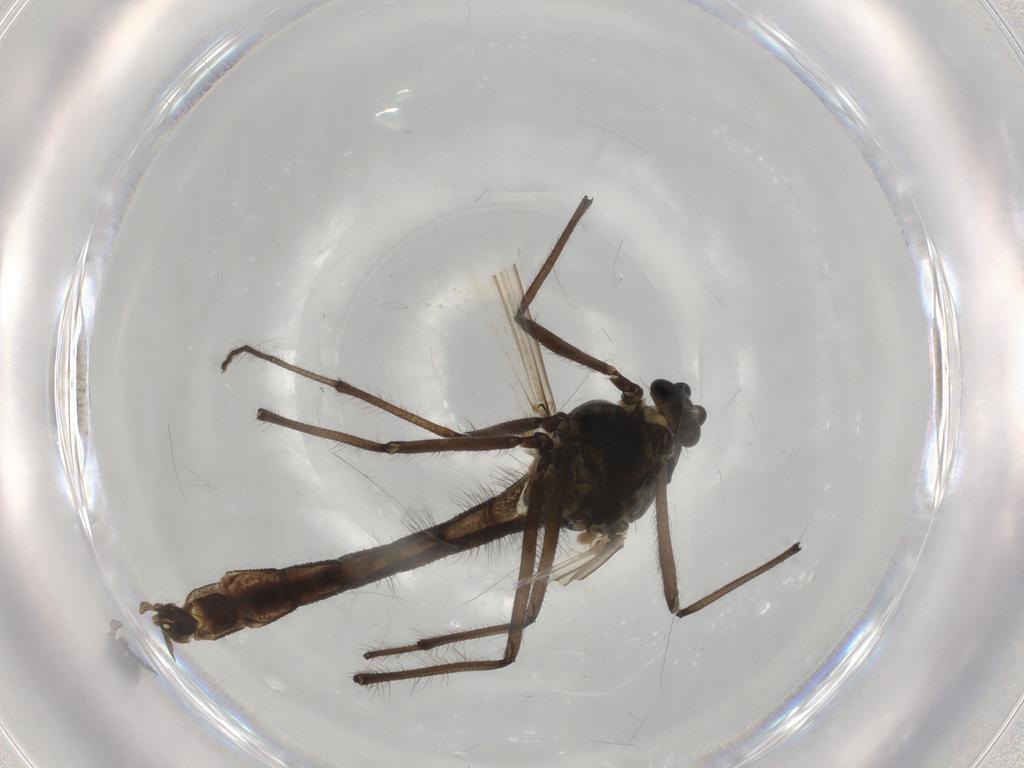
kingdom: Animalia
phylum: Arthropoda
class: Insecta
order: Diptera
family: Chironomidae
